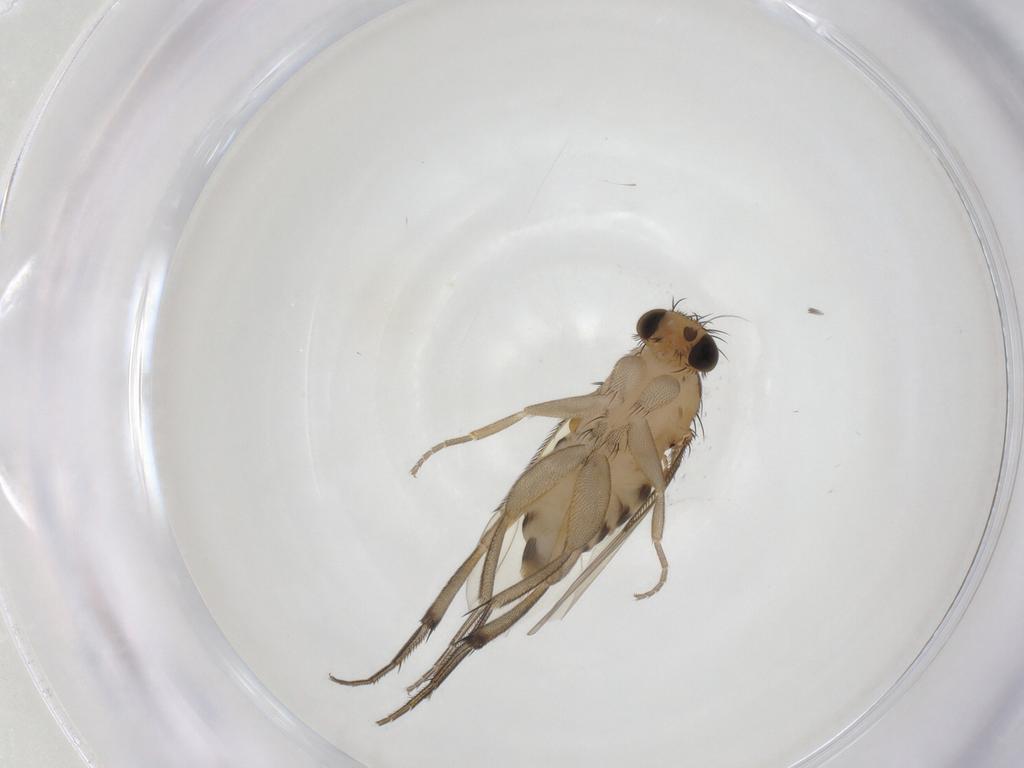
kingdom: Animalia
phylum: Arthropoda
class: Insecta
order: Diptera
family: Phoridae
